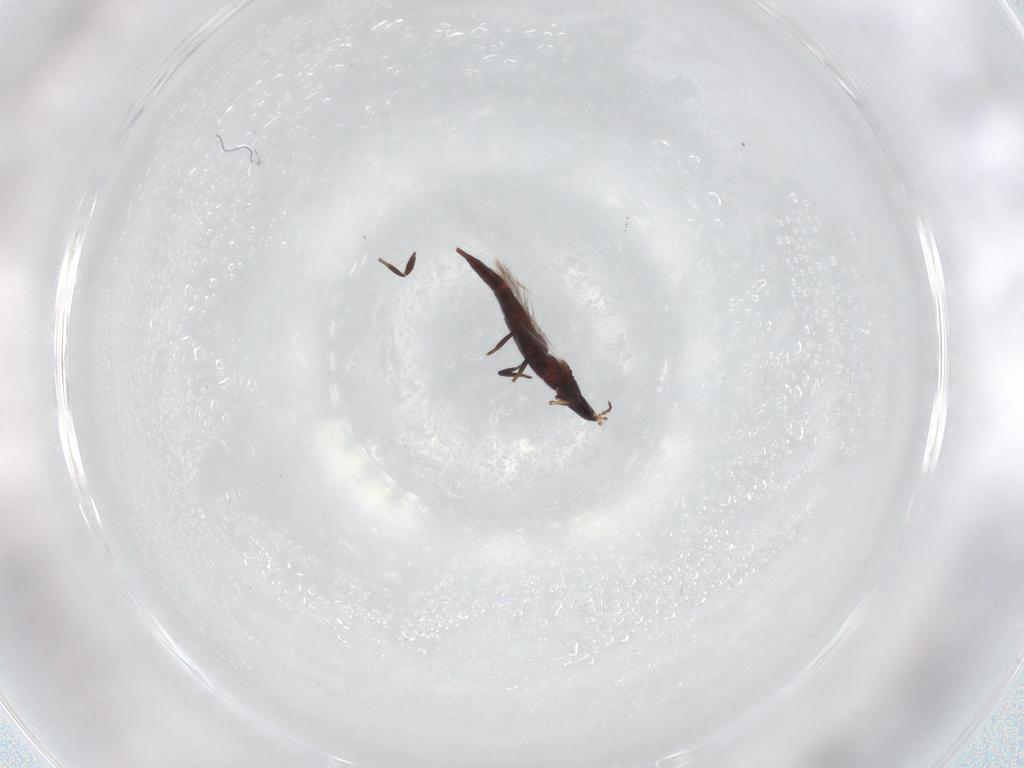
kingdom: Animalia
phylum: Arthropoda
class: Insecta
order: Thysanoptera
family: Phlaeothripidae
